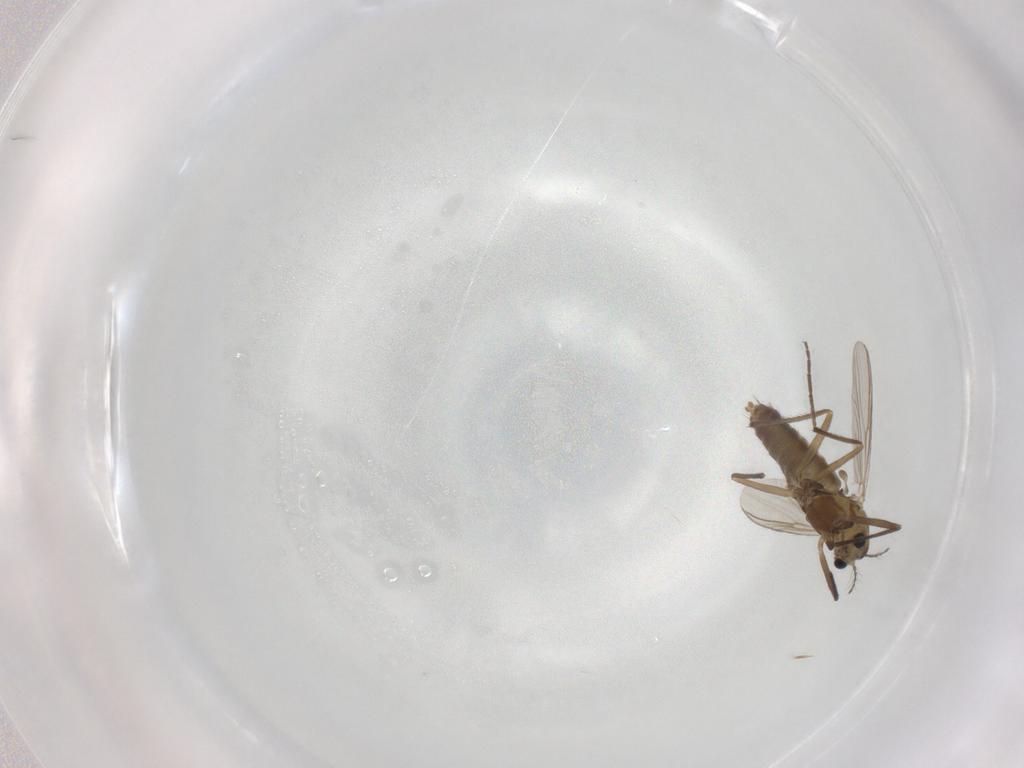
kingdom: Animalia
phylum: Arthropoda
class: Insecta
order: Diptera
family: Chironomidae
